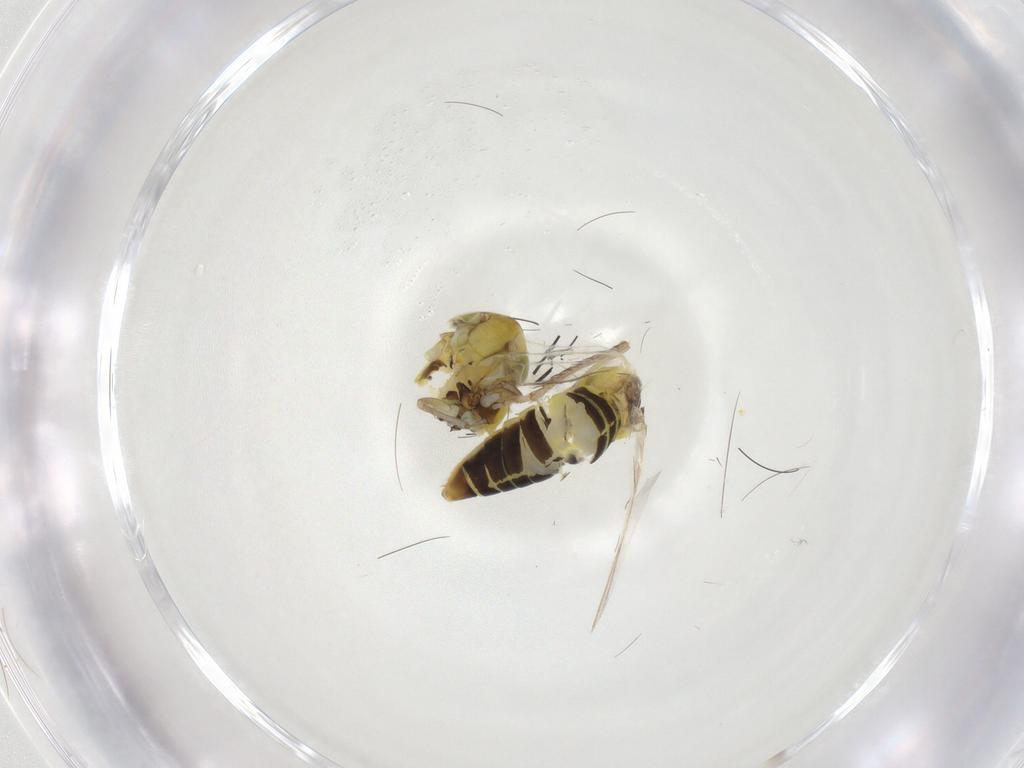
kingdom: Animalia
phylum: Arthropoda
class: Insecta
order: Hemiptera
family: Cicadellidae
